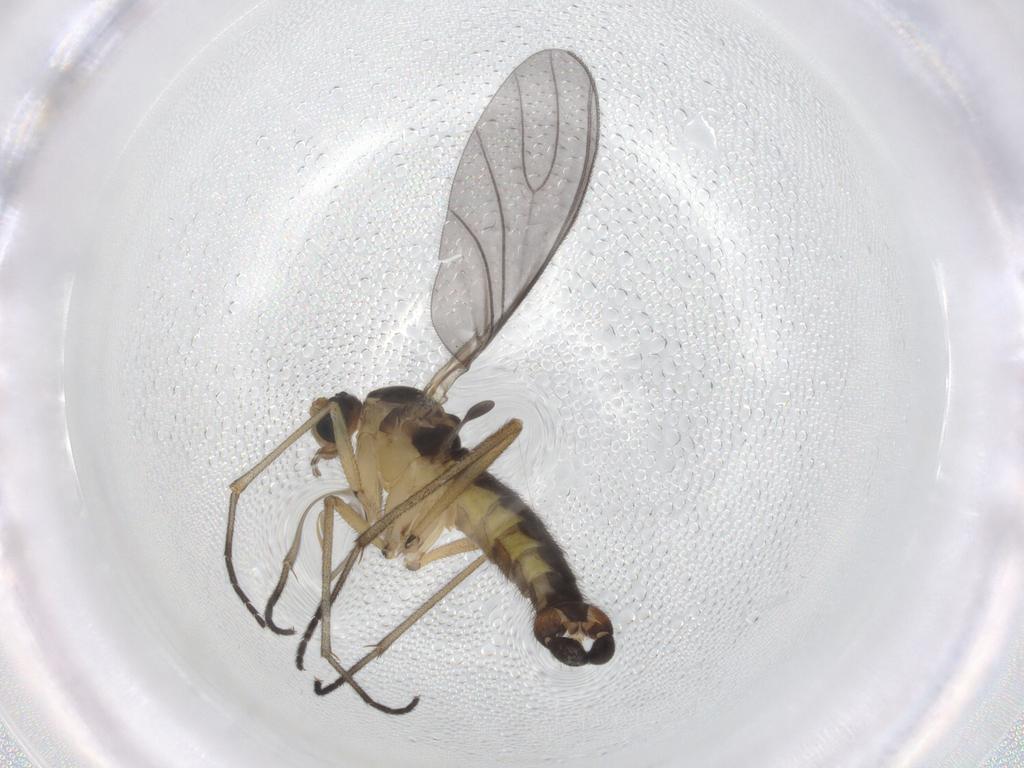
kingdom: Animalia
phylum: Arthropoda
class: Insecta
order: Diptera
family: Sciaridae
